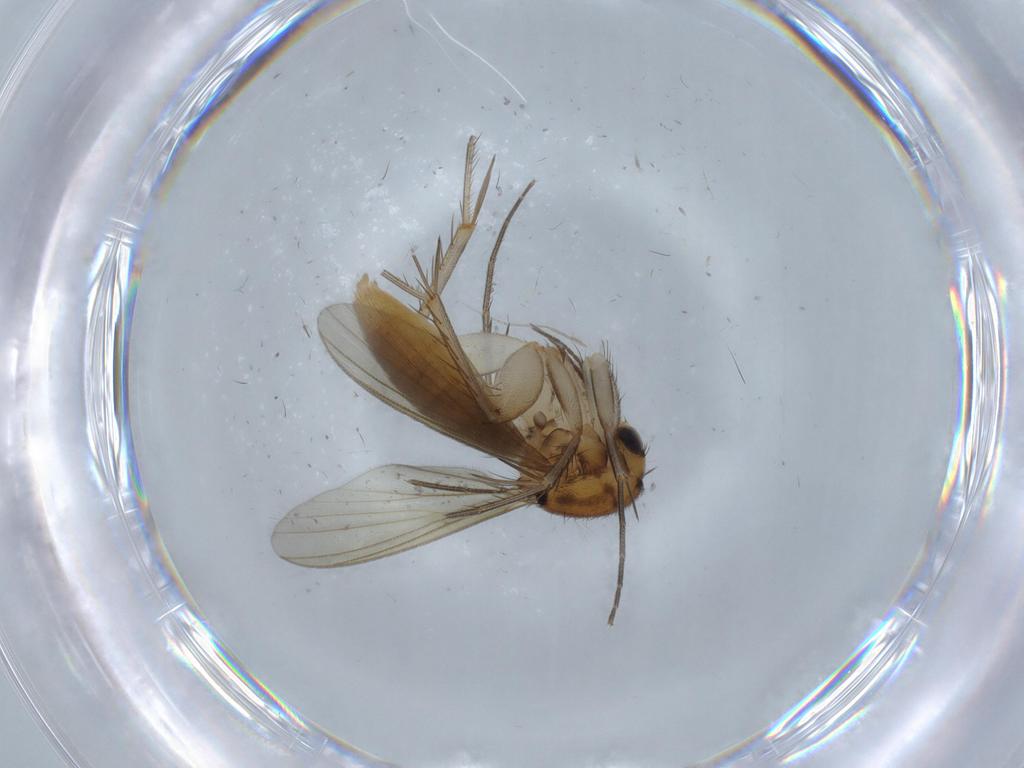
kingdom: Animalia
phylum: Arthropoda
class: Insecta
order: Diptera
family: Mycetophilidae
